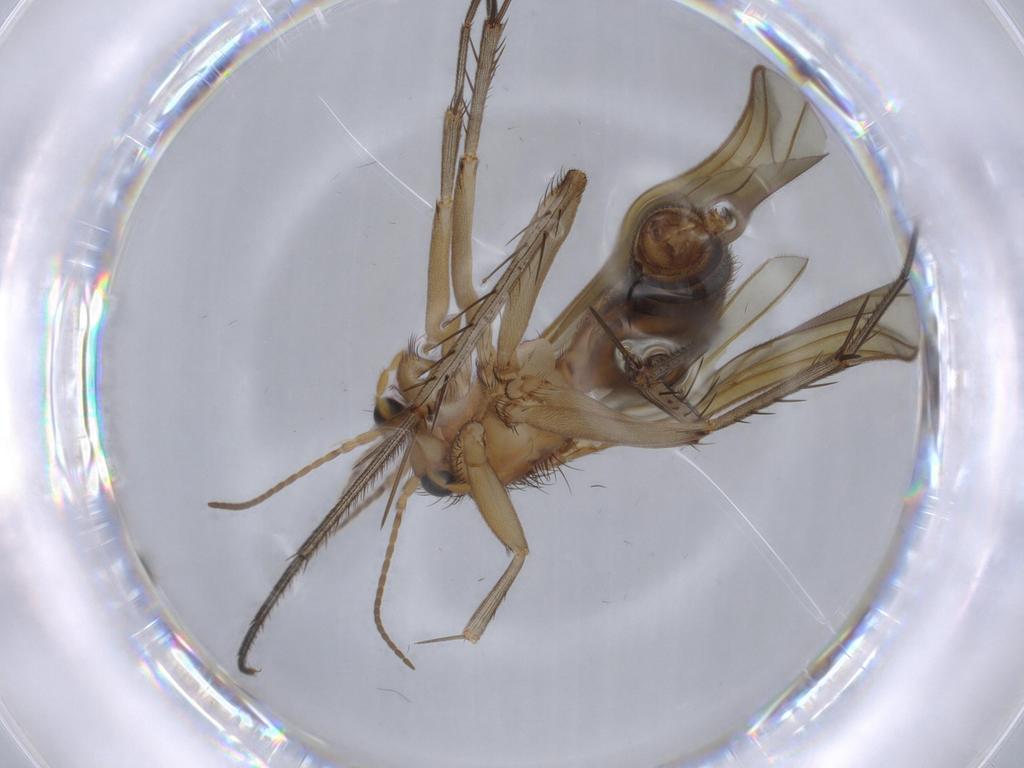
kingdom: Animalia
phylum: Arthropoda
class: Insecta
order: Diptera
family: Mycetophilidae
